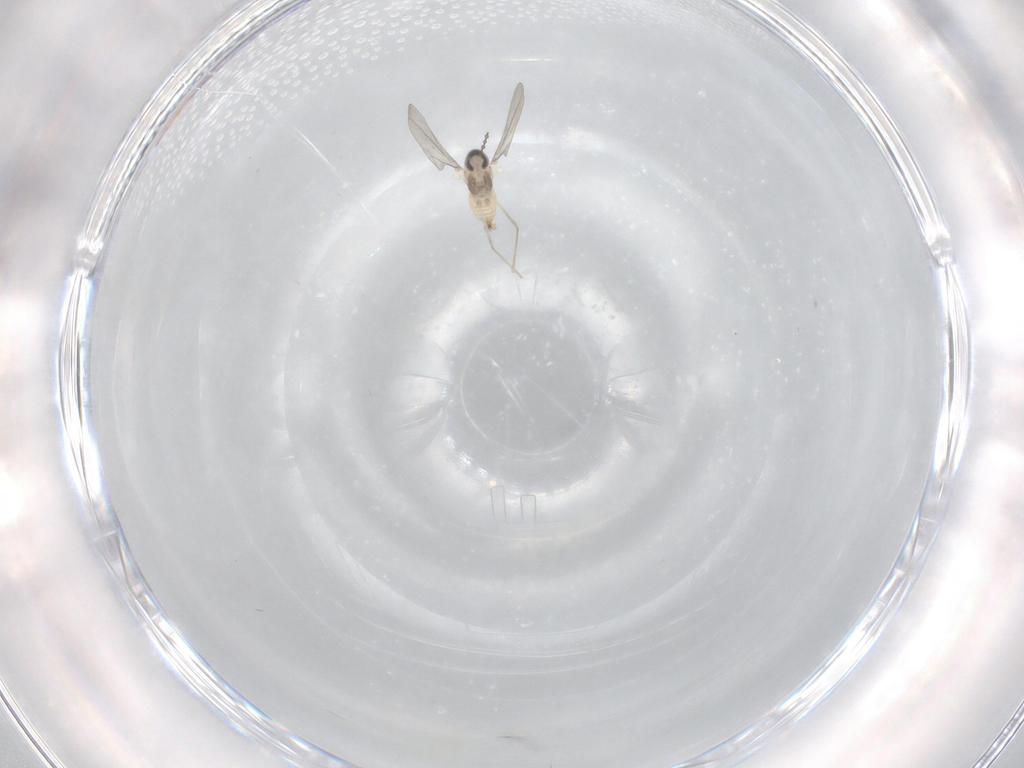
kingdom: Animalia
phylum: Arthropoda
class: Insecta
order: Diptera
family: Cecidomyiidae
